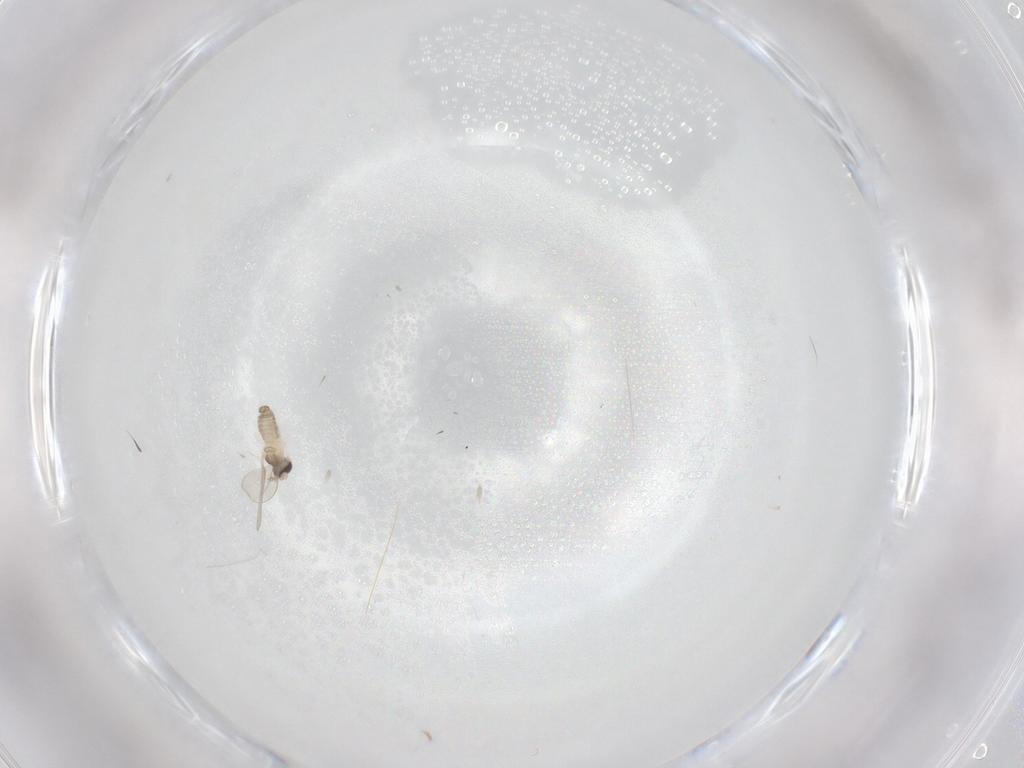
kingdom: Animalia
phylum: Arthropoda
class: Insecta
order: Diptera
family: Cecidomyiidae
